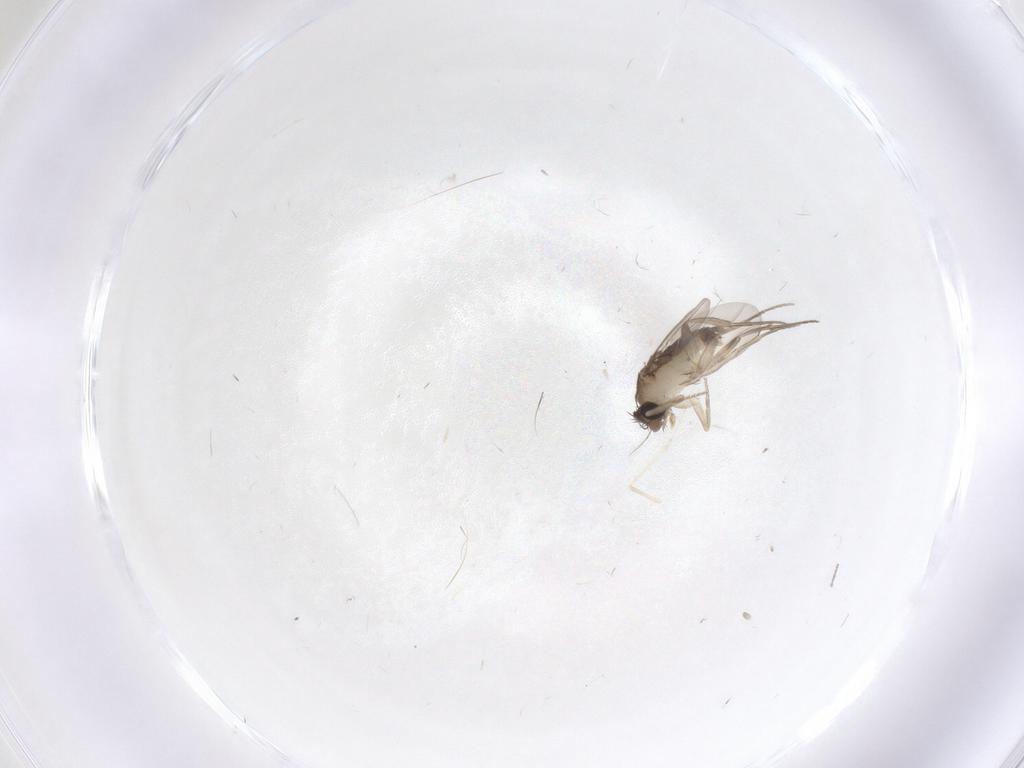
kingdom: Animalia
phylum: Arthropoda
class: Insecta
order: Diptera
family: Phoridae
